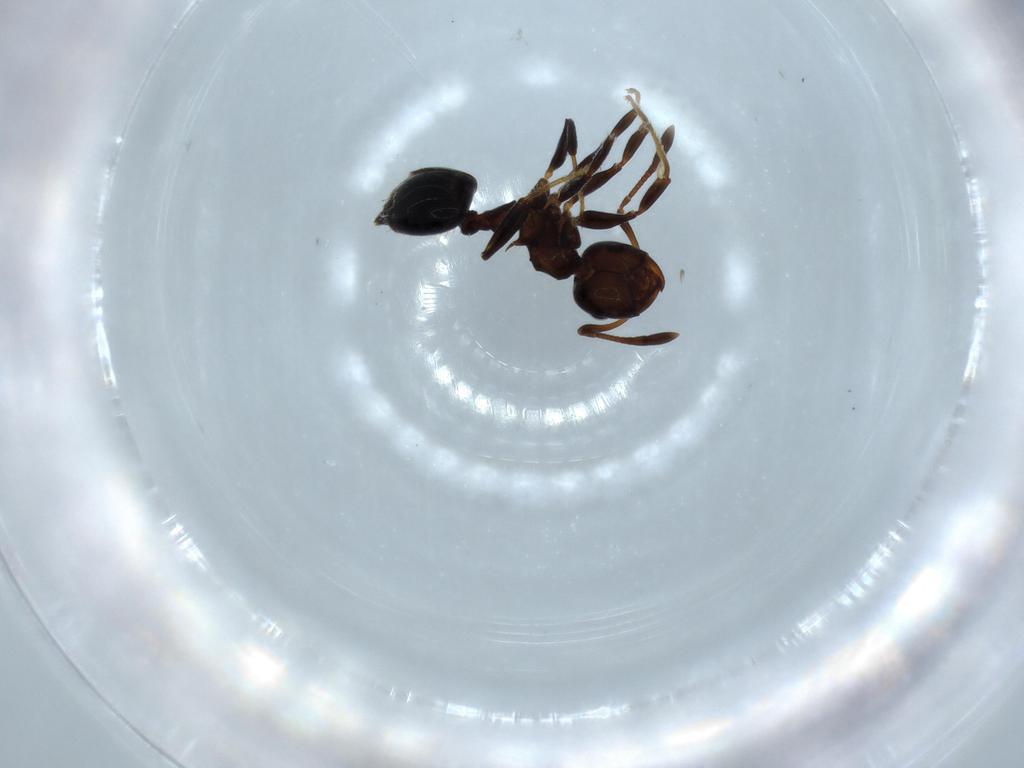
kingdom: Animalia
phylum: Arthropoda
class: Insecta
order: Hymenoptera
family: Formicidae
